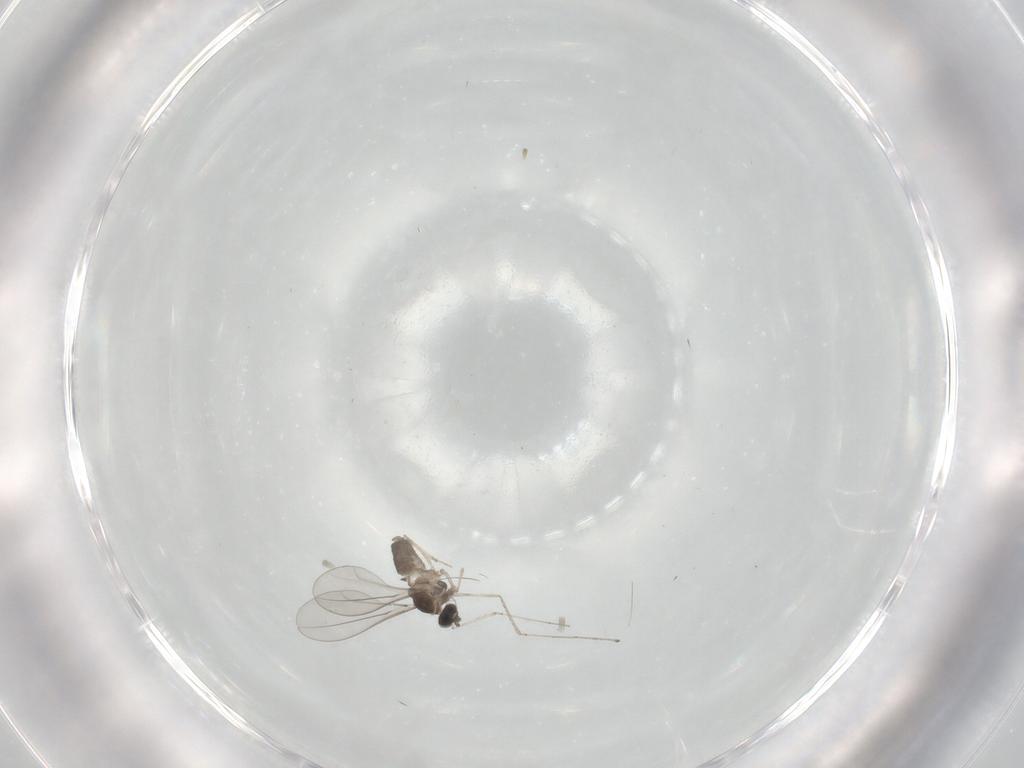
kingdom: Animalia
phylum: Arthropoda
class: Insecta
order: Diptera
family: Cecidomyiidae
